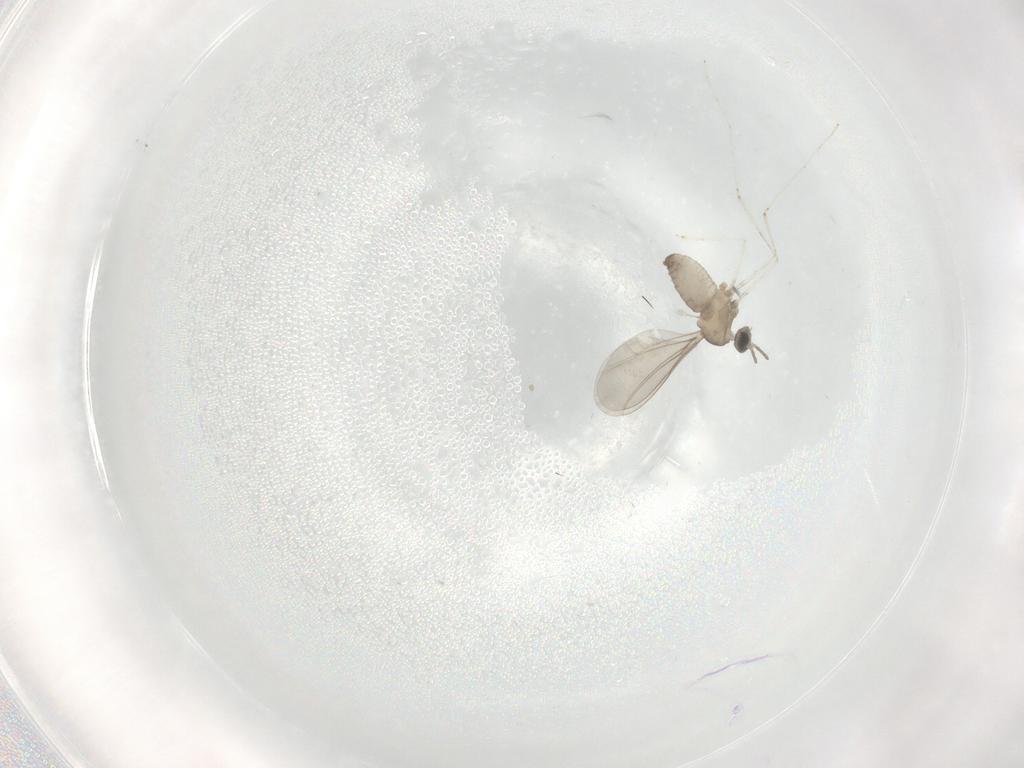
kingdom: Animalia
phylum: Arthropoda
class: Insecta
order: Diptera
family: Cecidomyiidae
